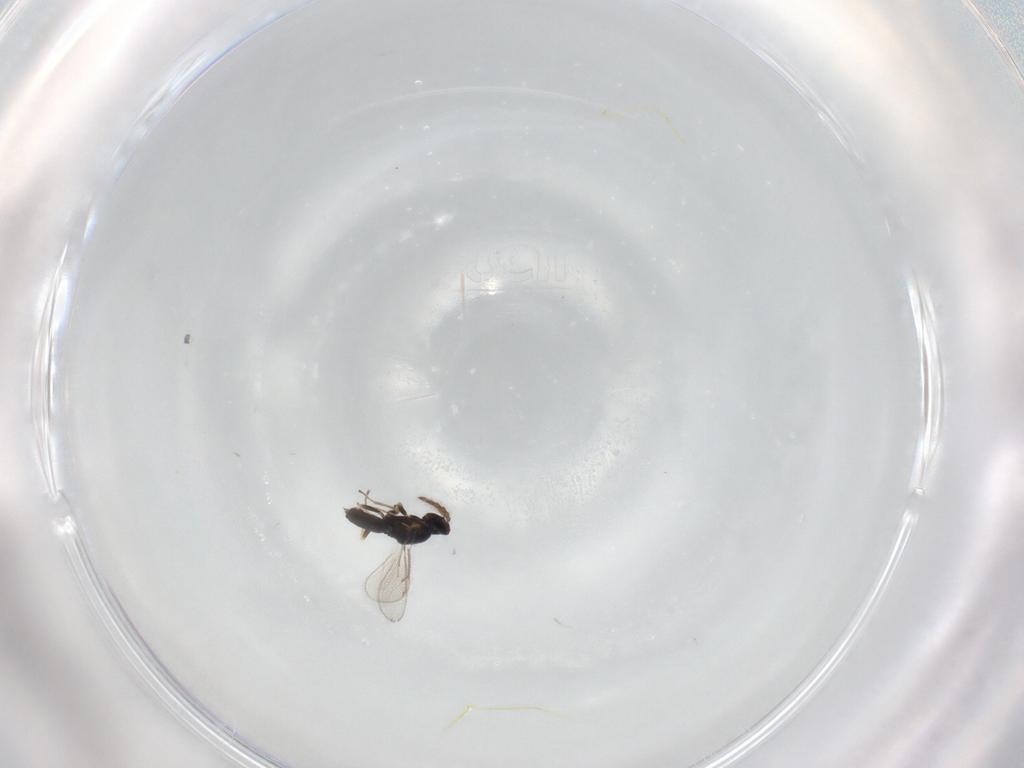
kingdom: Animalia
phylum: Arthropoda
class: Insecta
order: Hymenoptera
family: Eulophidae
